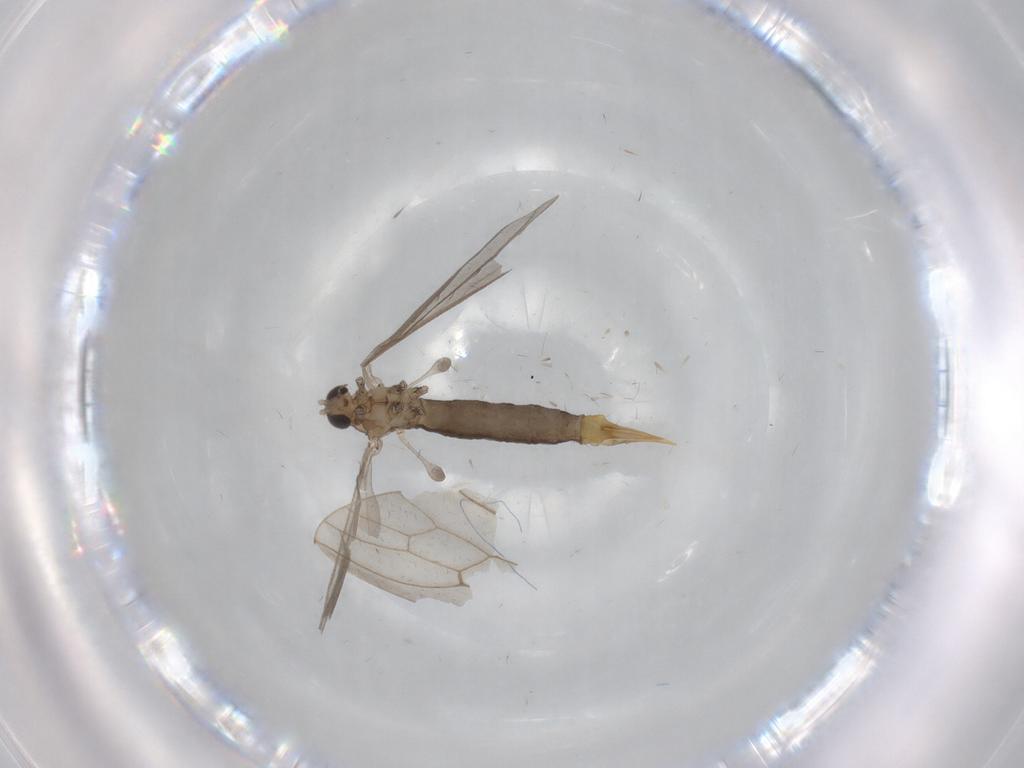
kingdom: Animalia
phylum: Arthropoda
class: Insecta
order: Diptera
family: Limoniidae
